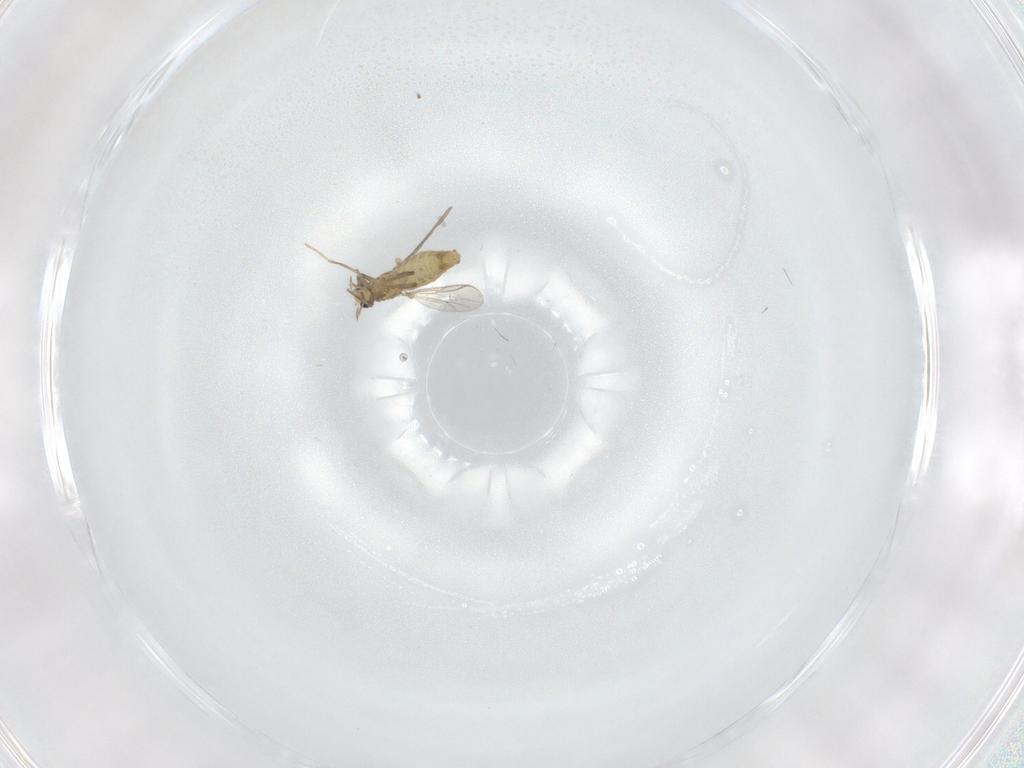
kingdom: Animalia
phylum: Arthropoda
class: Insecta
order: Diptera
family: Chironomidae
